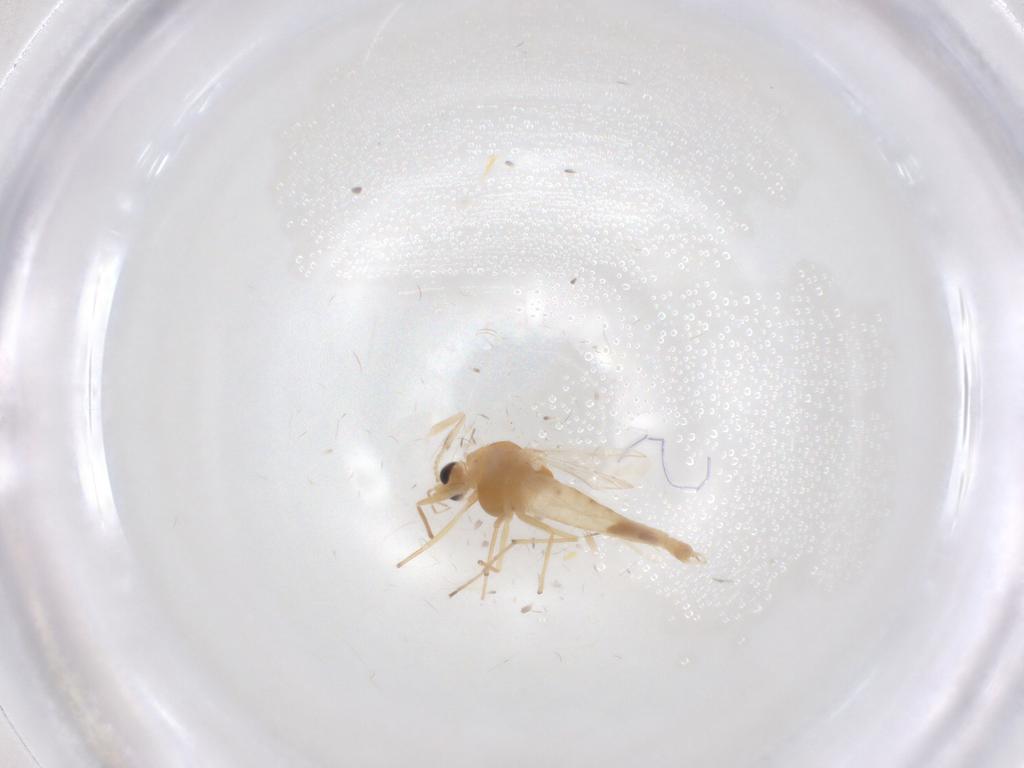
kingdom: Animalia
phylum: Arthropoda
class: Insecta
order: Diptera
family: Chironomidae
